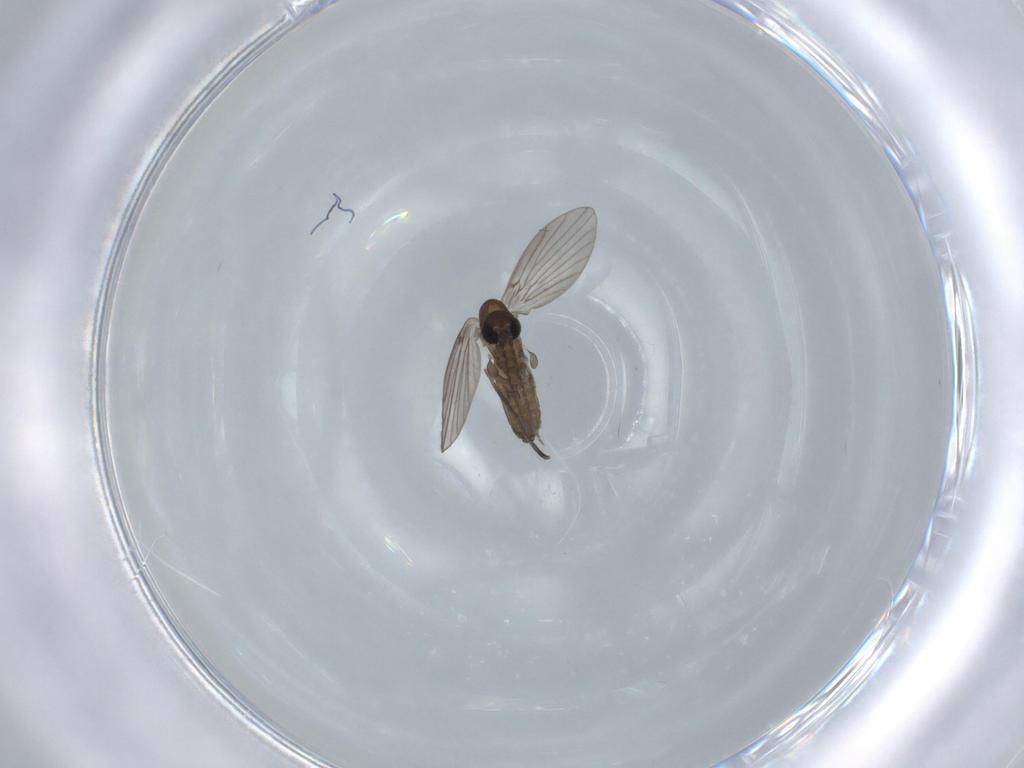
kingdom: Animalia
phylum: Arthropoda
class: Insecta
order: Diptera
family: Psychodidae
